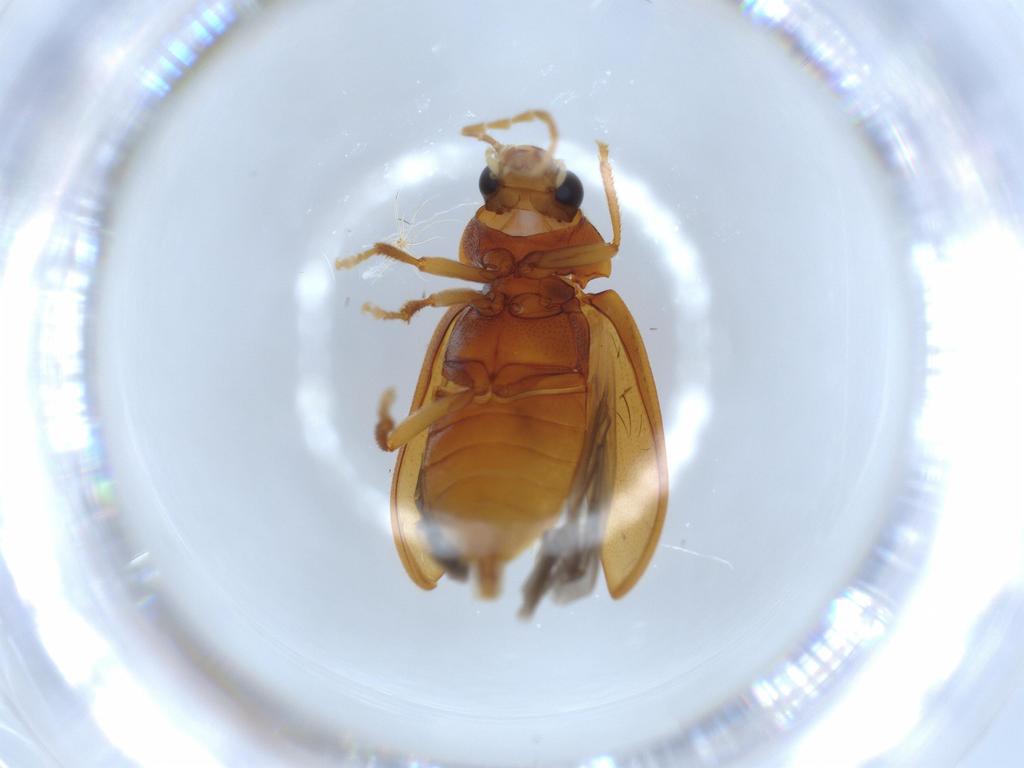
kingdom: Animalia
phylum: Arthropoda
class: Insecta
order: Coleoptera
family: Ptilodactylidae
